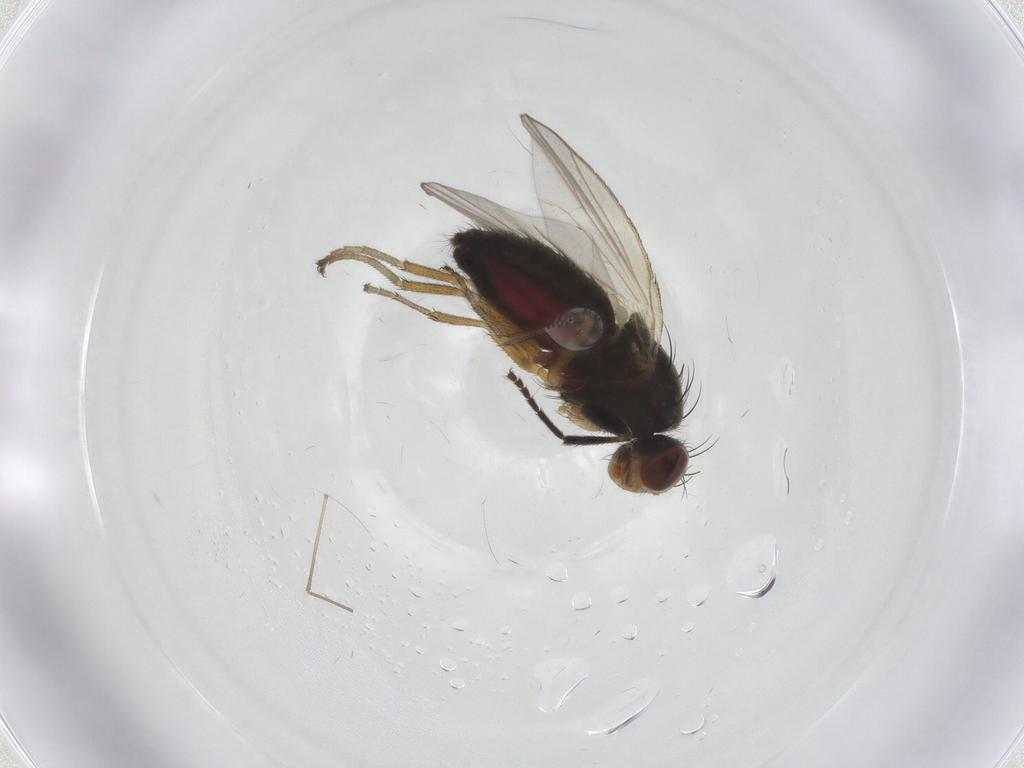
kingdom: Animalia
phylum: Arthropoda
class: Insecta
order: Diptera
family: Heleomyzidae
